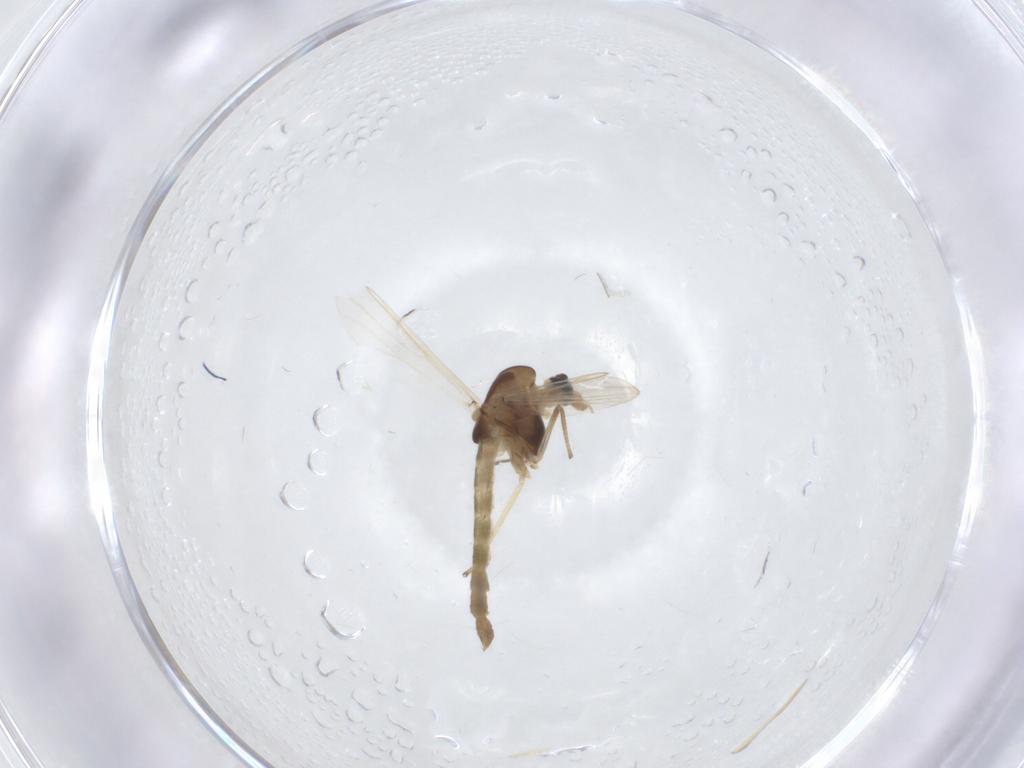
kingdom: Animalia
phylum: Arthropoda
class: Insecta
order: Diptera
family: Chironomidae
